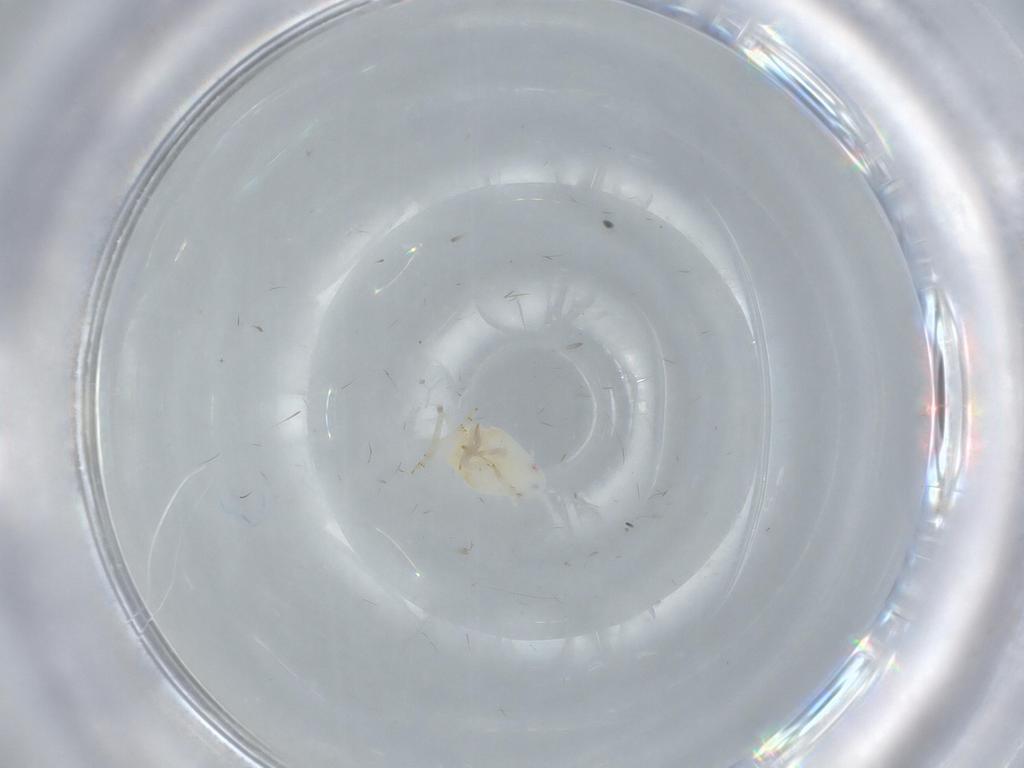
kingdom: Animalia
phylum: Arthropoda
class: Insecta
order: Hemiptera
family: Flatidae
